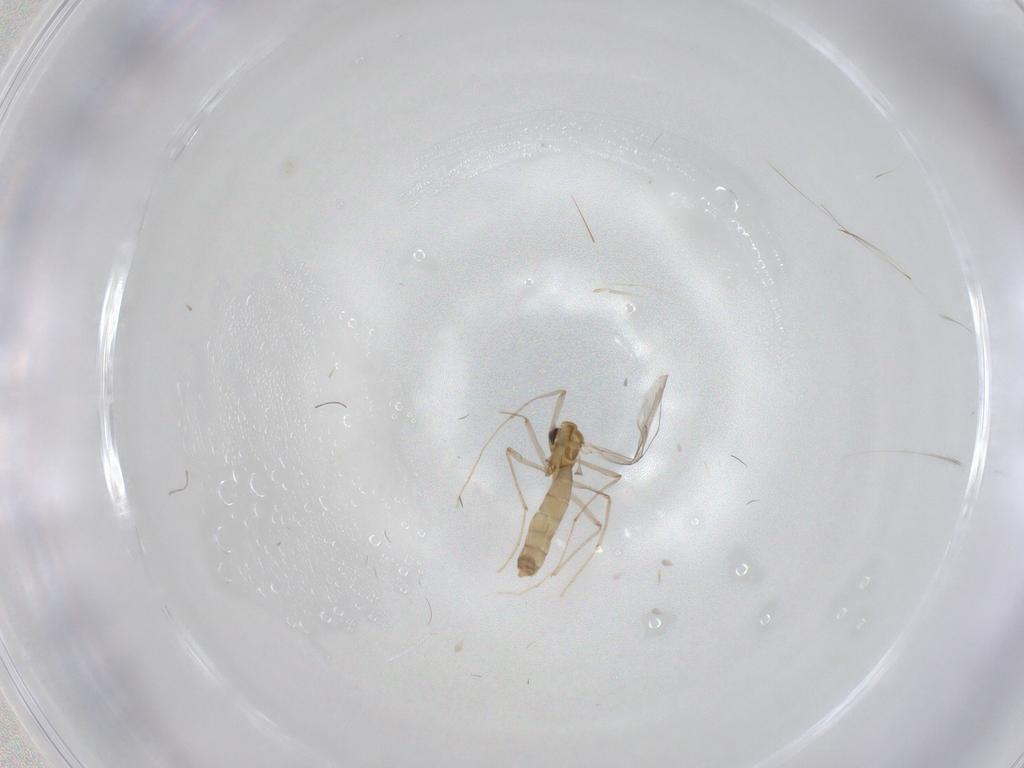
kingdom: Animalia
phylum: Arthropoda
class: Insecta
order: Diptera
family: Chironomidae
